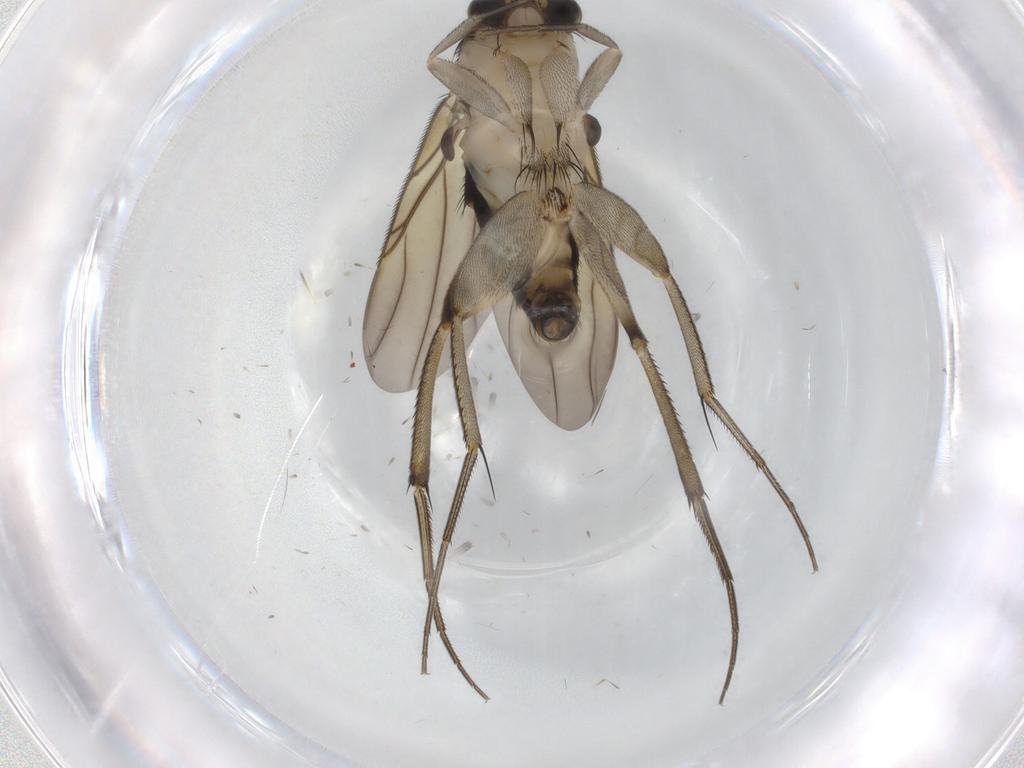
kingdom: Animalia
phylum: Arthropoda
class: Insecta
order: Diptera
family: Phoridae
